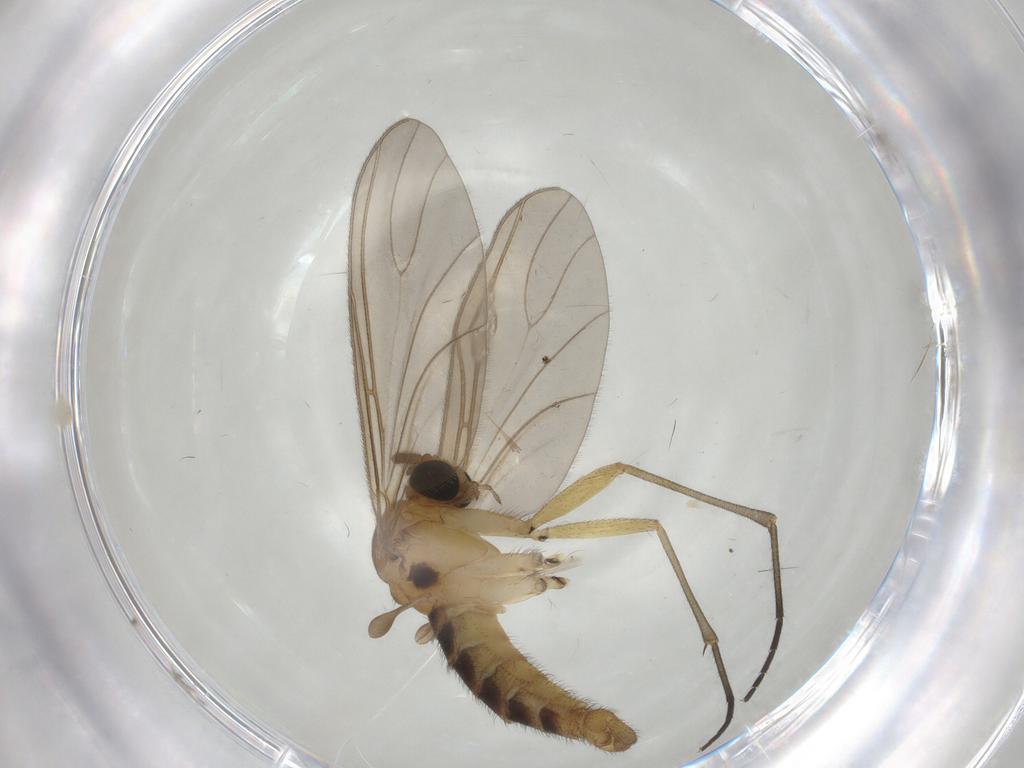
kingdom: Animalia
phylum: Arthropoda
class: Insecta
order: Diptera
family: Sciaridae
